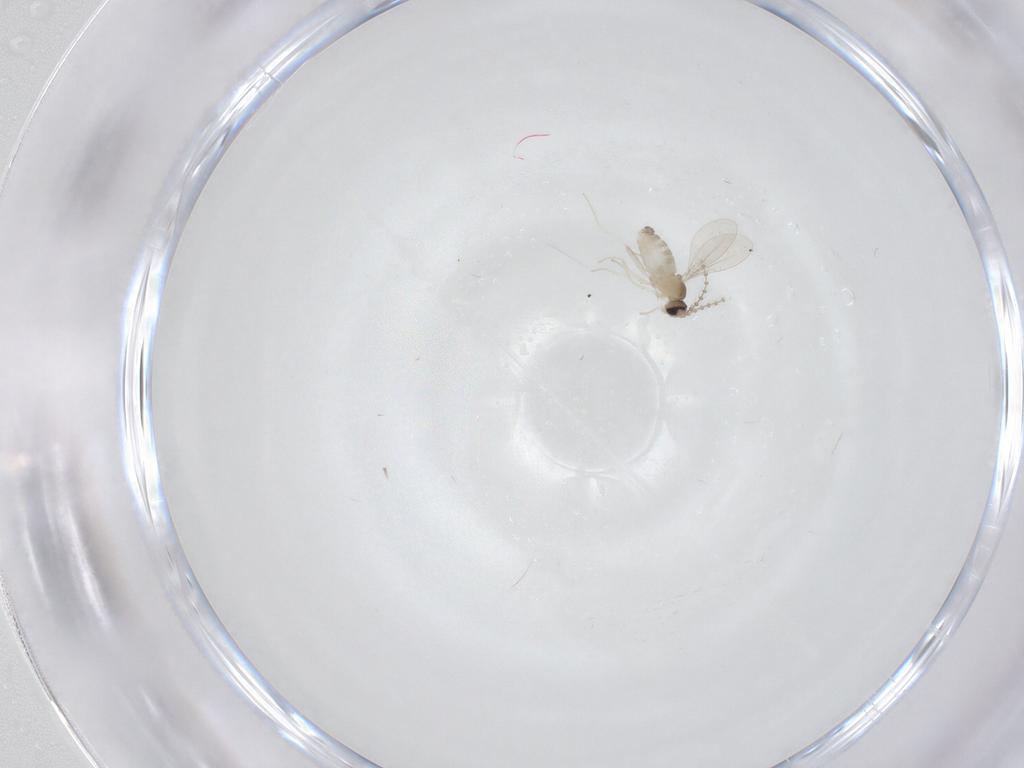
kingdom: Animalia
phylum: Arthropoda
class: Insecta
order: Diptera
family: Cecidomyiidae
